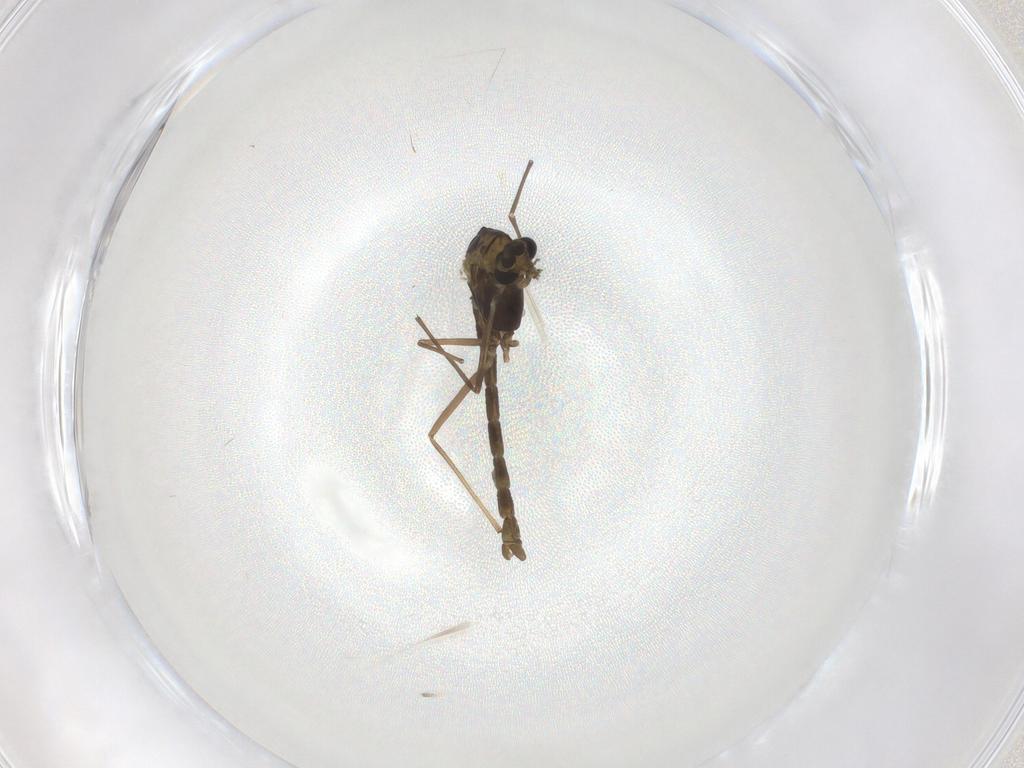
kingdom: Animalia
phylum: Arthropoda
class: Insecta
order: Diptera
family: Chironomidae
